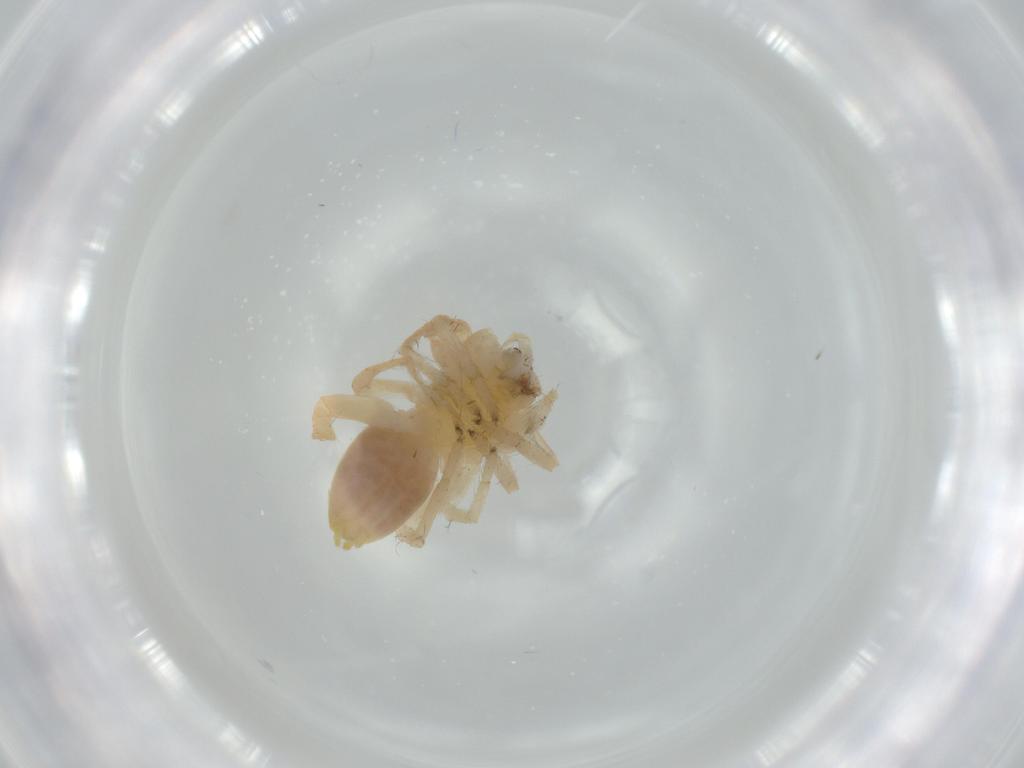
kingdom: Animalia
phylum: Arthropoda
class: Arachnida
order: Araneae
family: Anyphaenidae
